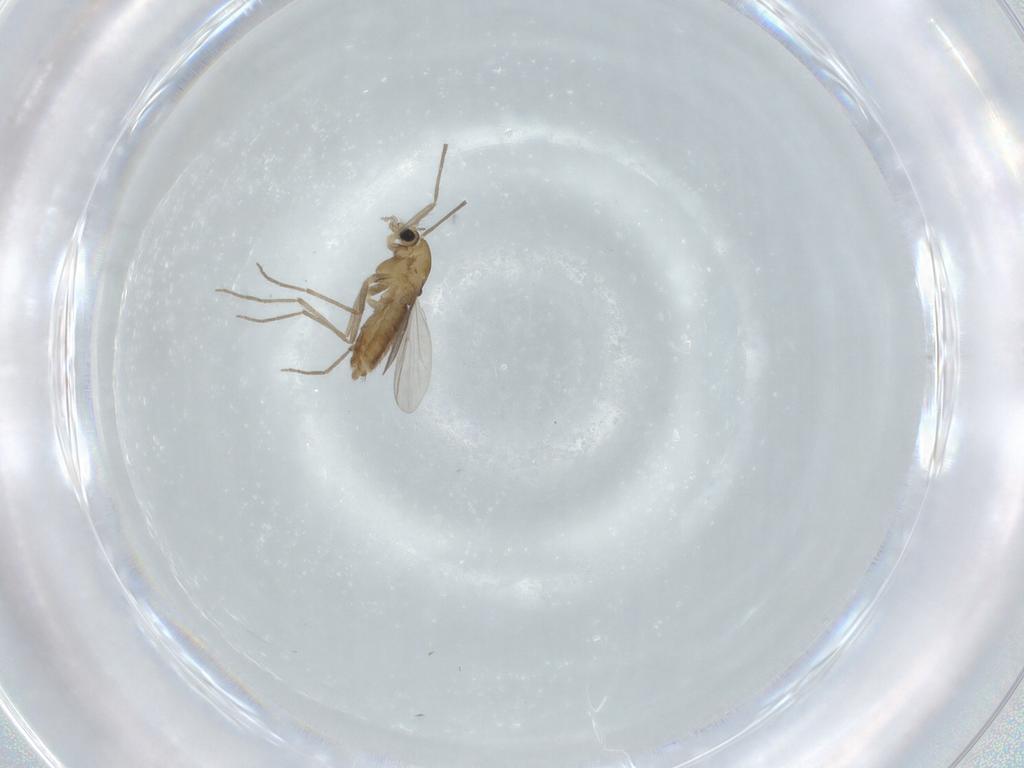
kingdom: Animalia
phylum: Arthropoda
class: Insecta
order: Diptera
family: Chironomidae
